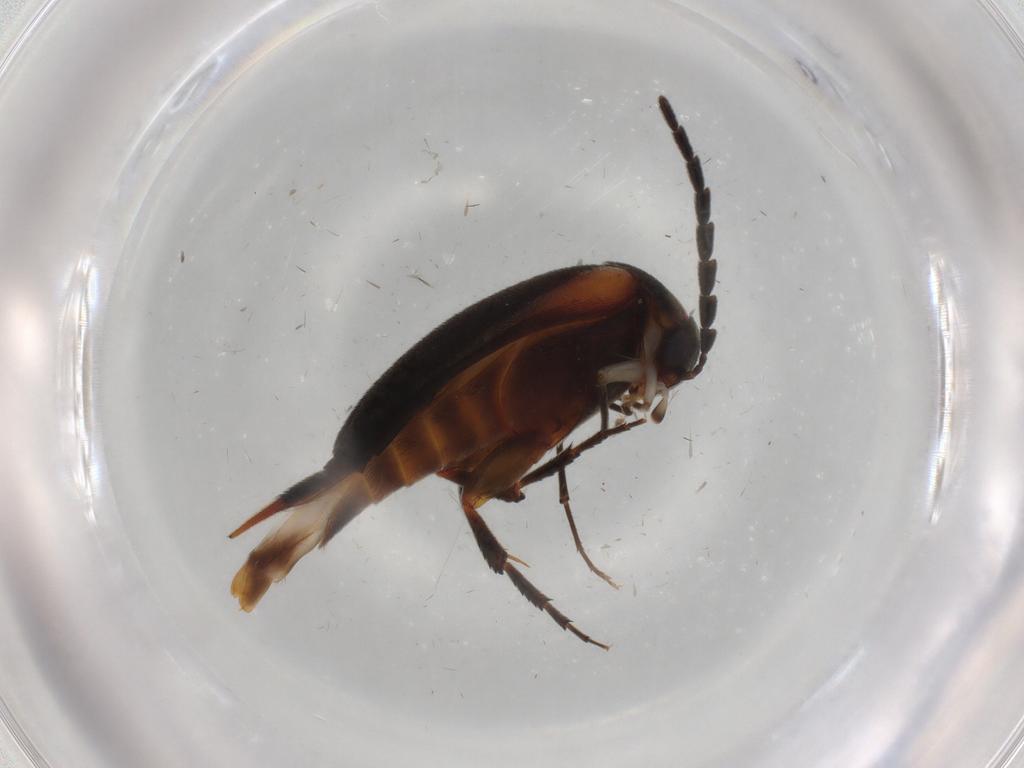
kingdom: Animalia
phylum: Arthropoda
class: Insecta
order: Coleoptera
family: Mordellidae
